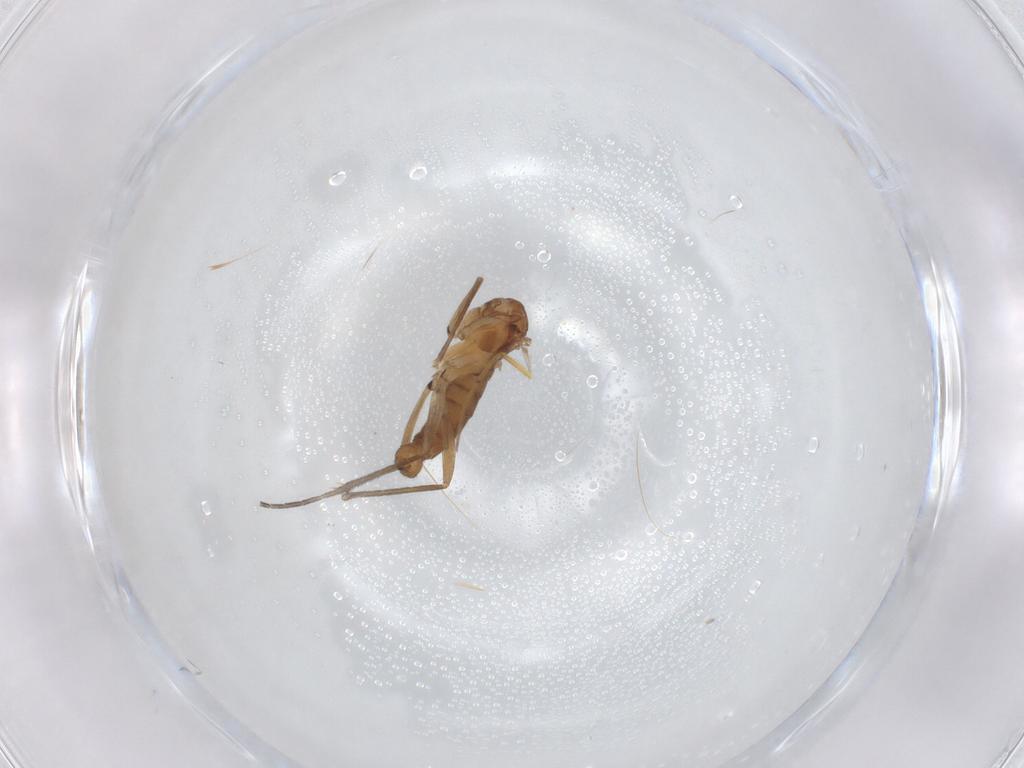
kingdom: Animalia
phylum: Arthropoda
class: Insecta
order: Diptera
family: Sciaridae
